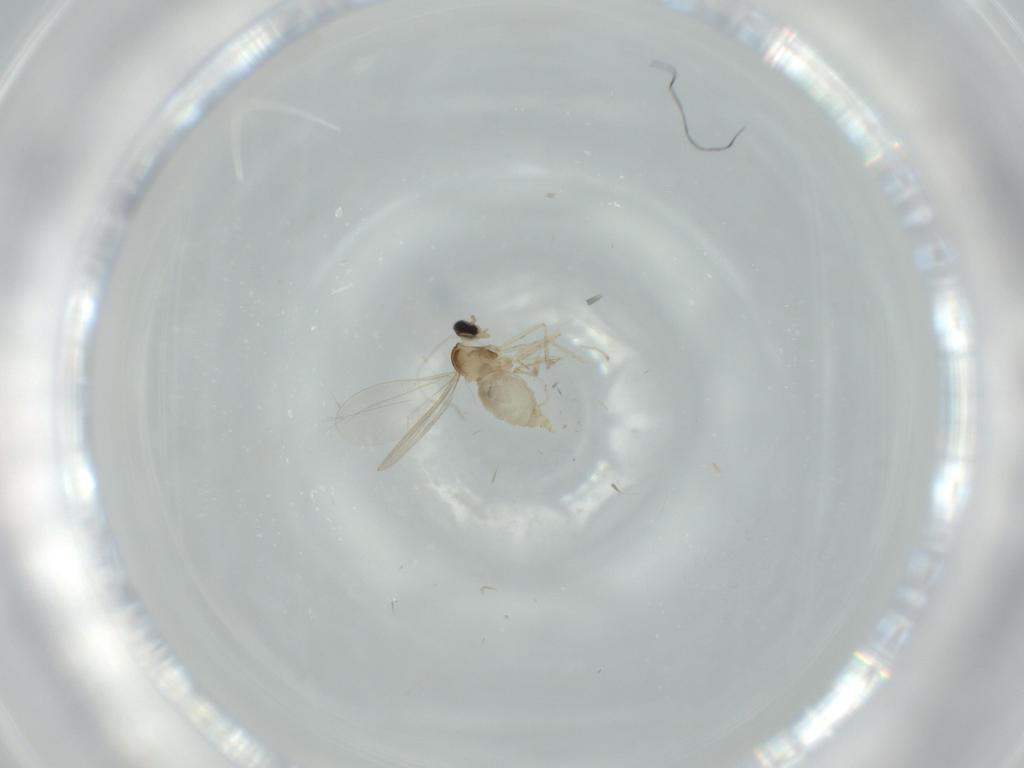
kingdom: Animalia
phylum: Arthropoda
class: Insecta
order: Diptera
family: Cecidomyiidae
